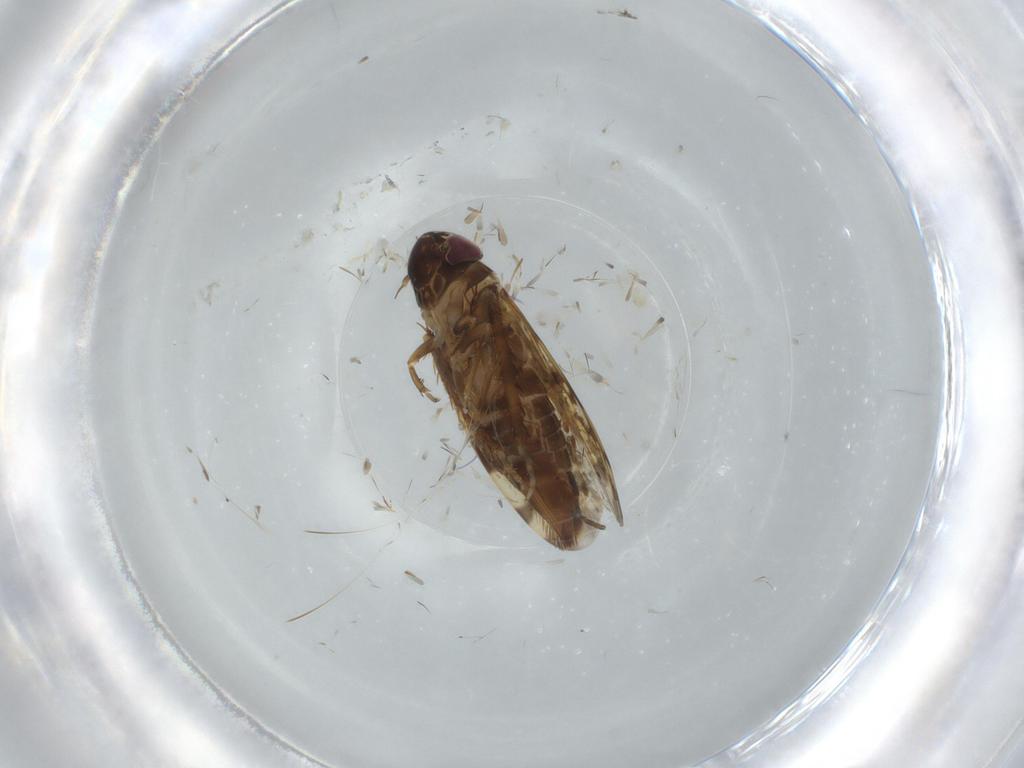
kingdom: Animalia
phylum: Arthropoda
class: Insecta
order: Hemiptera
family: Cicadellidae
